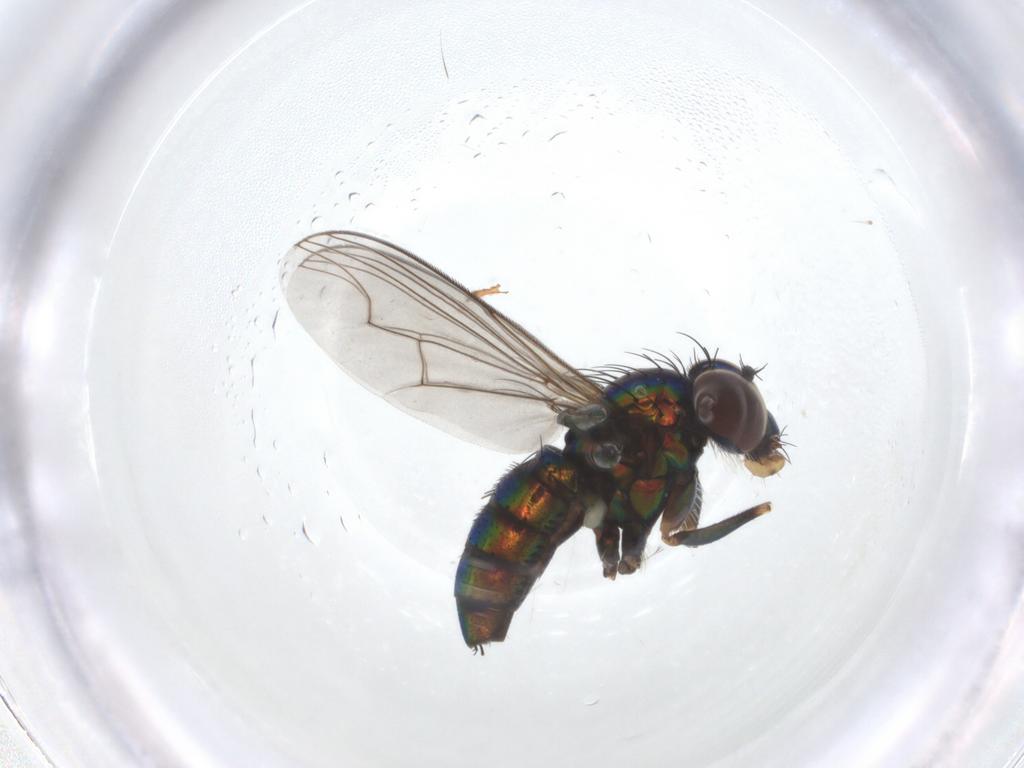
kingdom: Animalia
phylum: Arthropoda
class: Insecta
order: Diptera
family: Dolichopodidae
